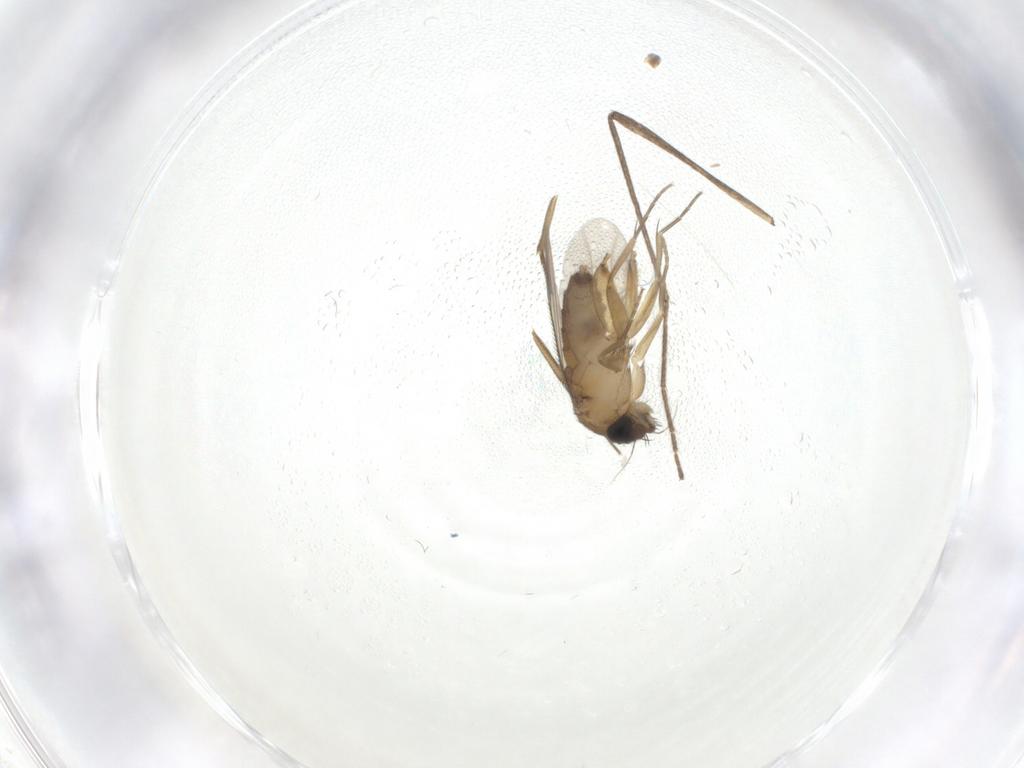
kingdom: Animalia
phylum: Arthropoda
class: Insecta
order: Diptera
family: Phoridae
